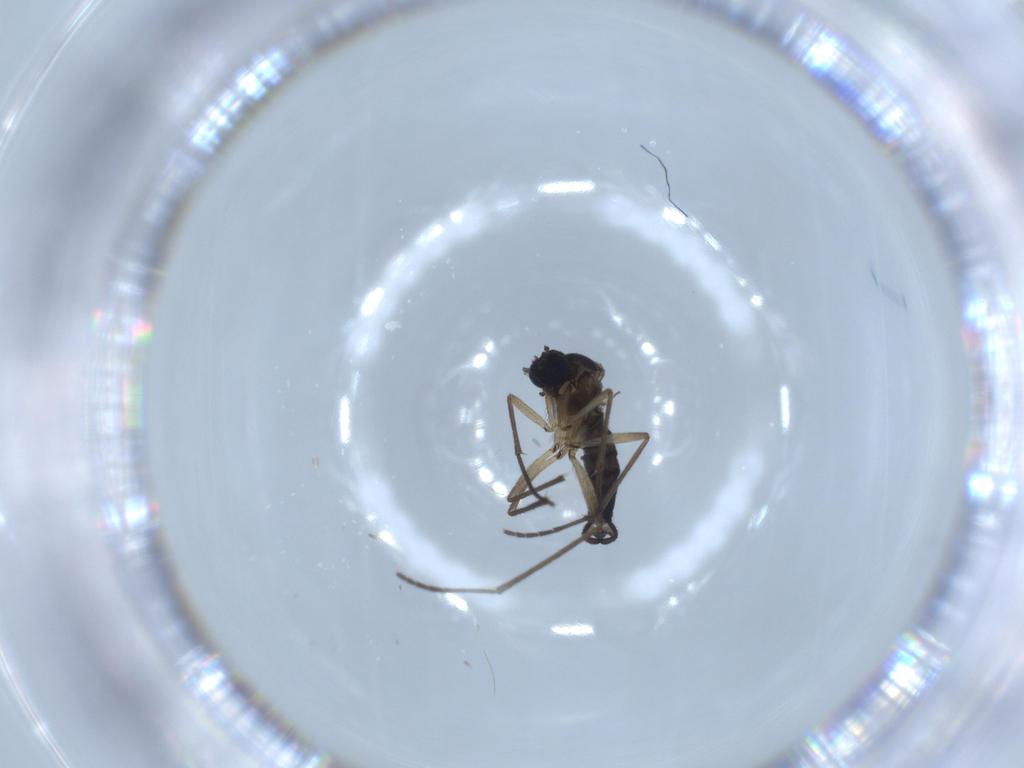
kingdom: Animalia
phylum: Arthropoda
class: Insecta
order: Diptera
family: Sciaridae
